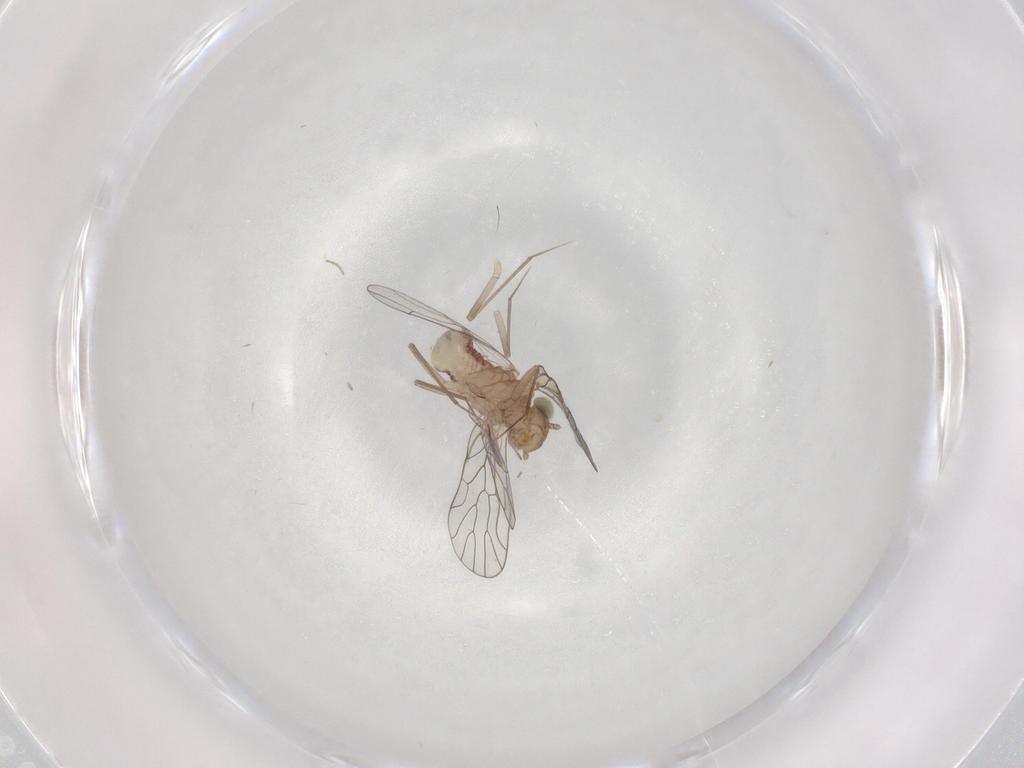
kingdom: Animalia
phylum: Arthropoda
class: Insecta
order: Psocodea
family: Amphientomidae
